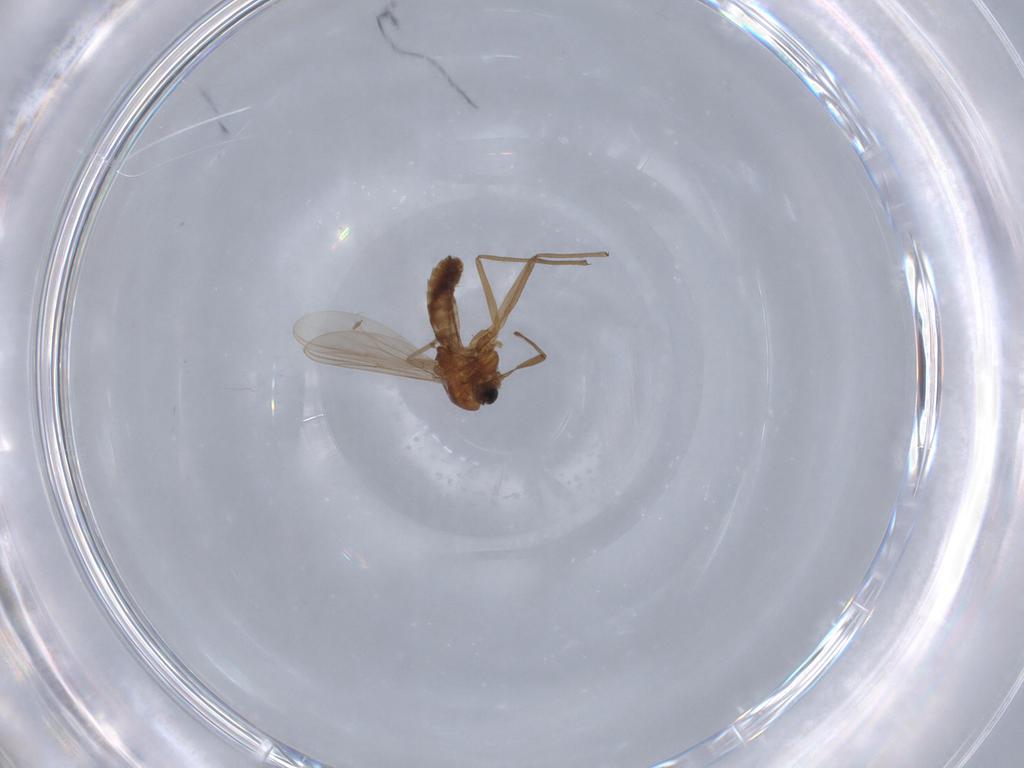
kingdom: Animalia
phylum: Arthropoda
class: Insecta
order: Diptera
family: Chironomidae
